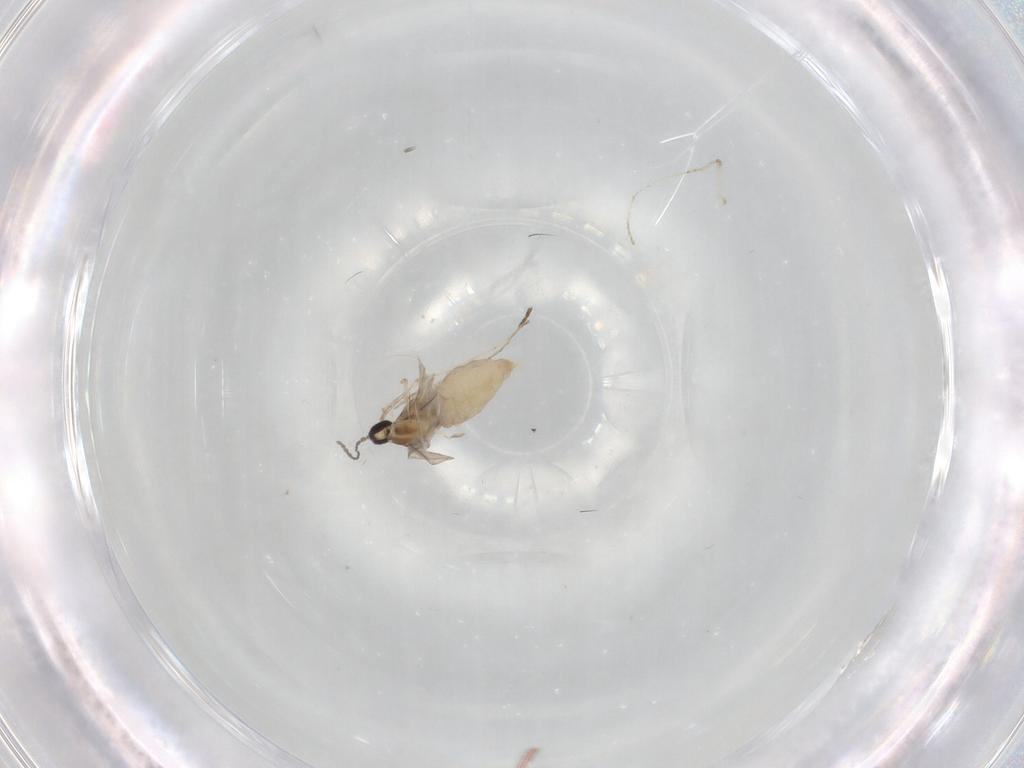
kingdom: Animalia
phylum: Arthropoda
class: Insecta
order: Diptera
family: Cecidomyiidae
